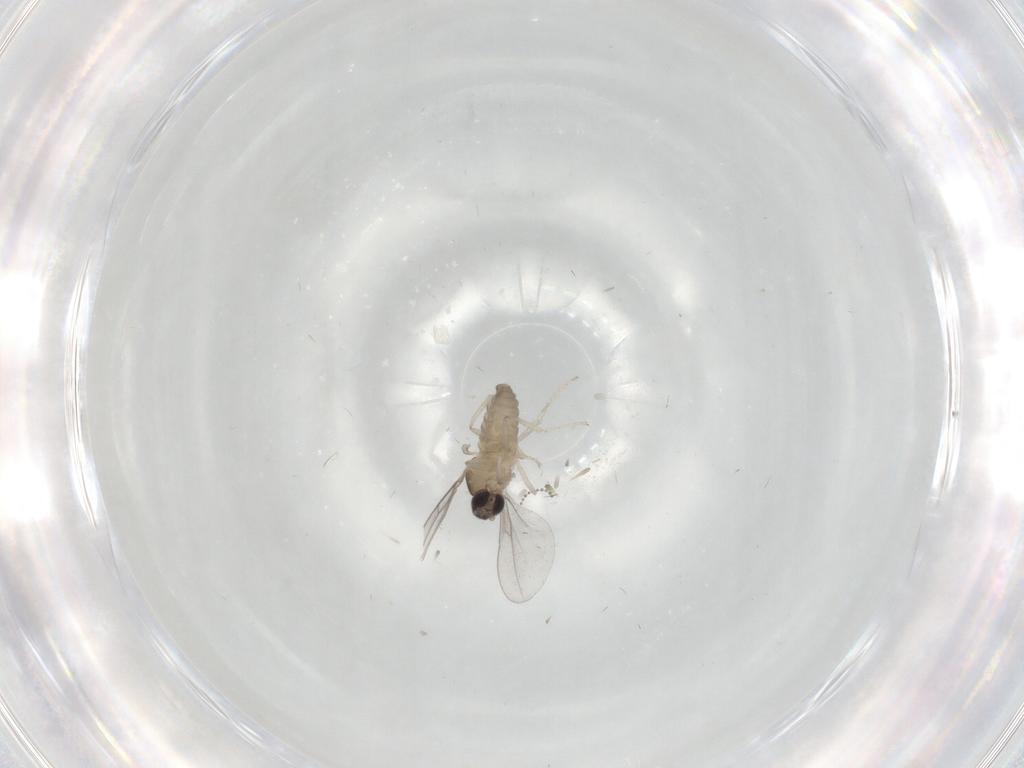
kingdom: Animalia
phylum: Arthropoda
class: Insecta
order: Diptera
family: Cecidomyiidae
